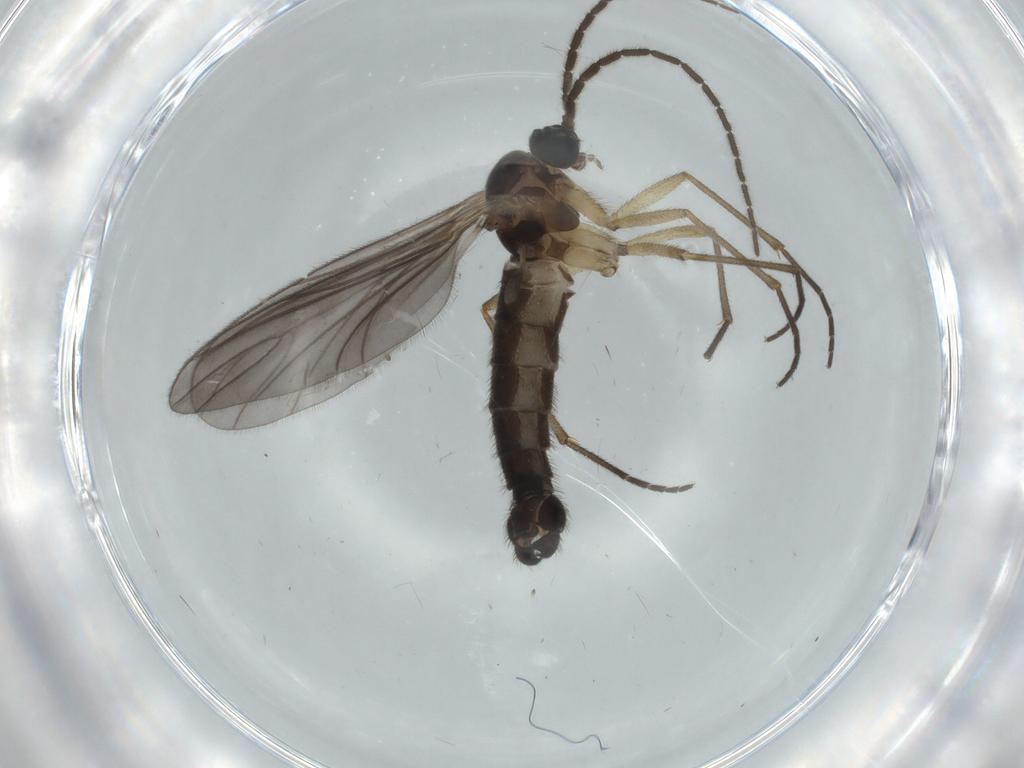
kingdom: Animalia
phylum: Arthropoda
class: Insecta
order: Diptera
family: Sciaridae
